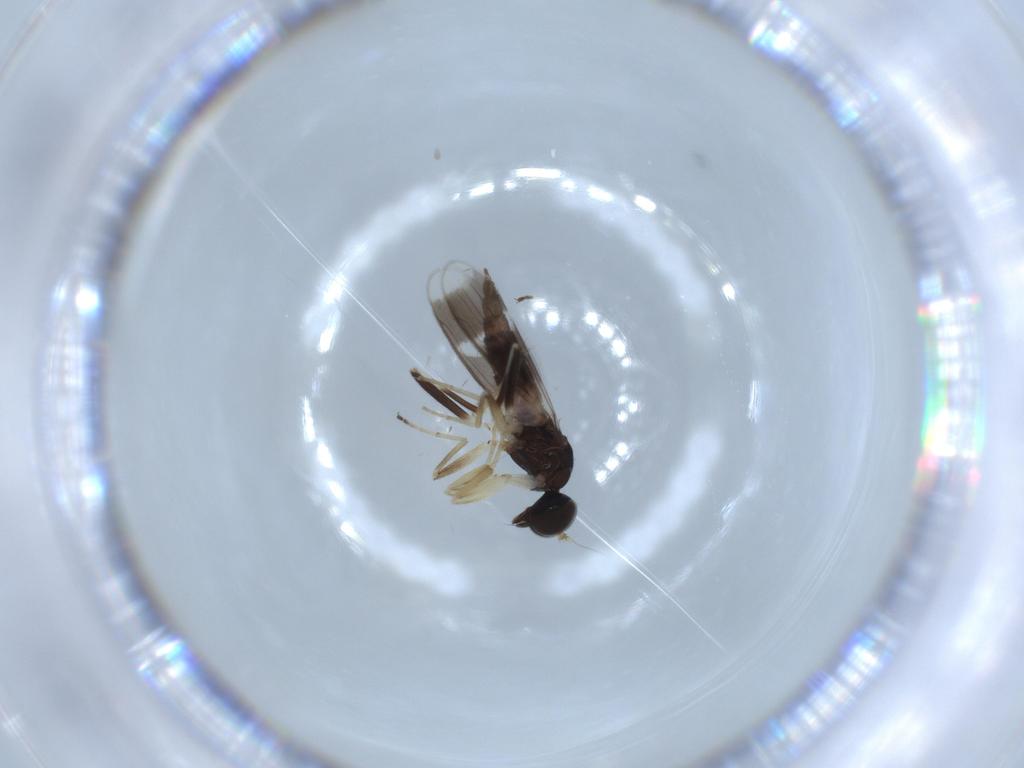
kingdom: Animalia
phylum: Arthropoda
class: Insecta
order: Diptera
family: Hybotidae
